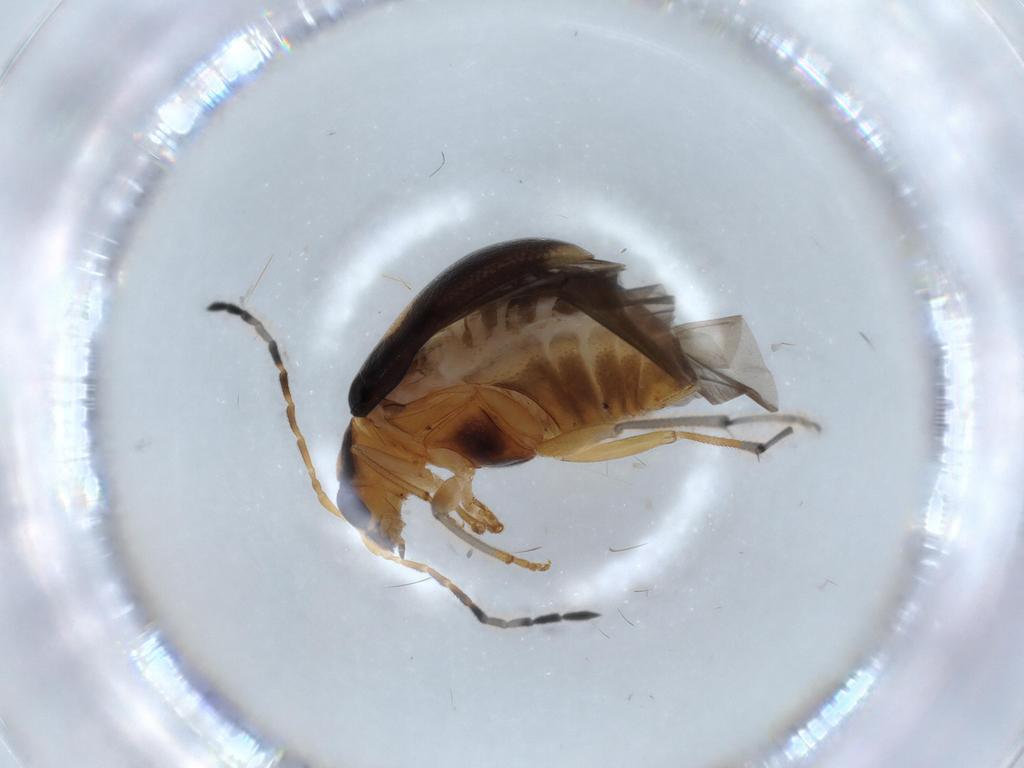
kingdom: Animalia
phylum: Arthropoda
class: Insecta
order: Coleoptera
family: Chrysomelidae
